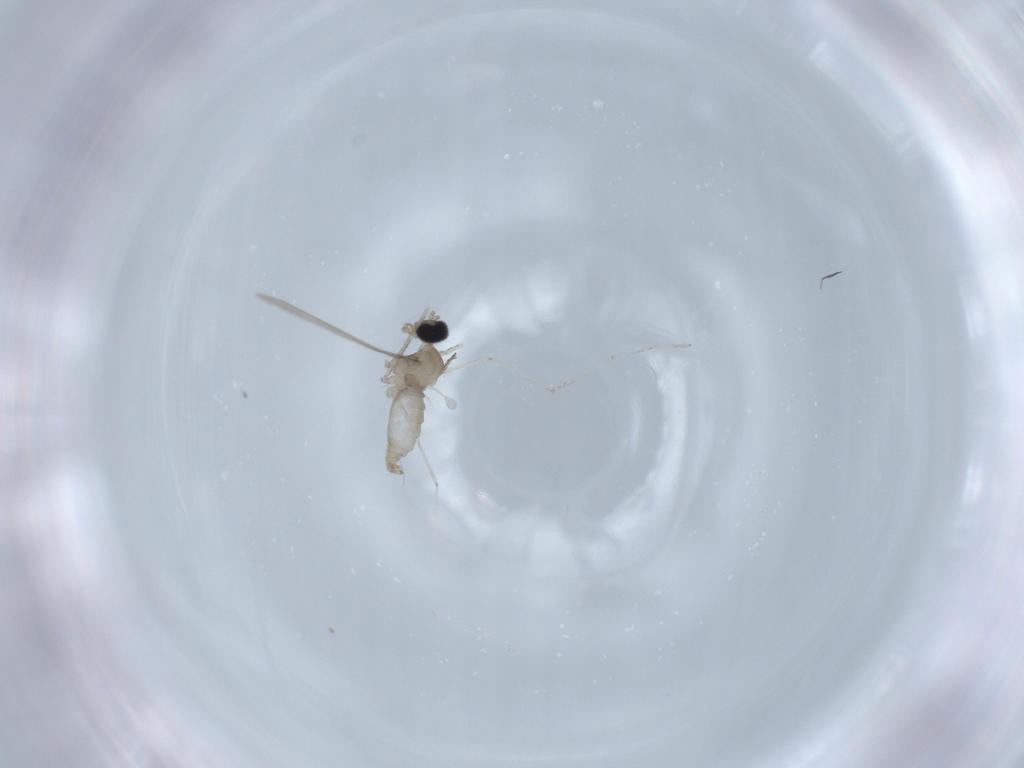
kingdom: Animalia
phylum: Arthropoda
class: Insecta
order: Diptera
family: Cecidomyiidae
